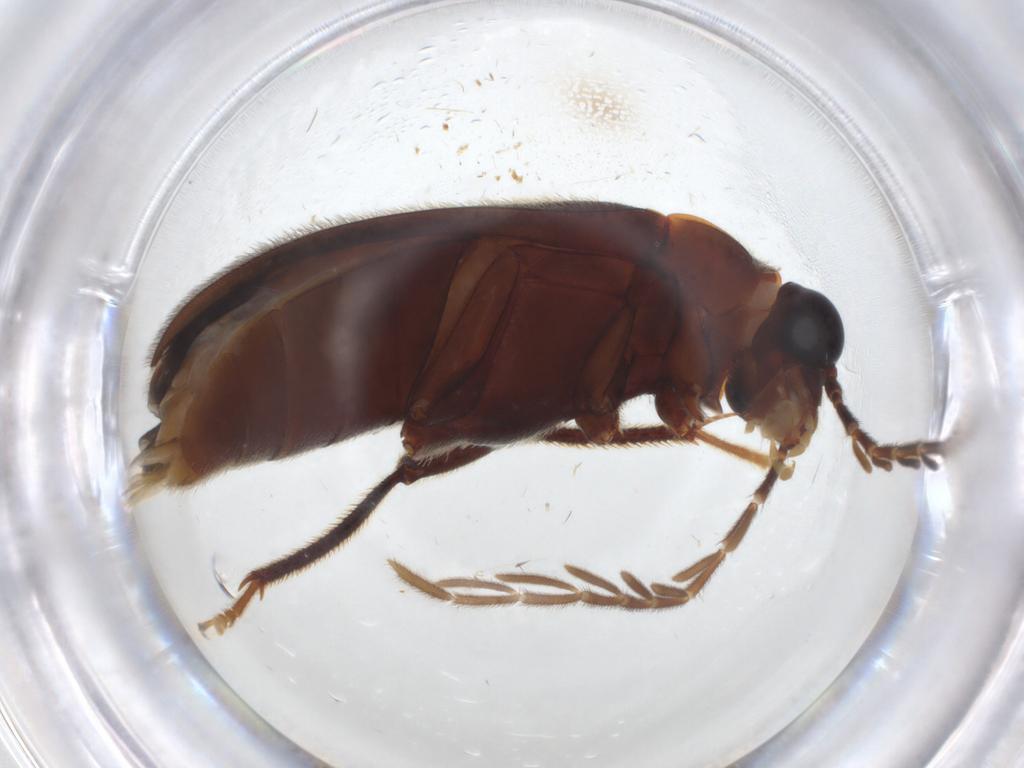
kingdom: Animalia
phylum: Arthropoda
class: Insecta
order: Coleoptera
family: Ptilodactylidae
